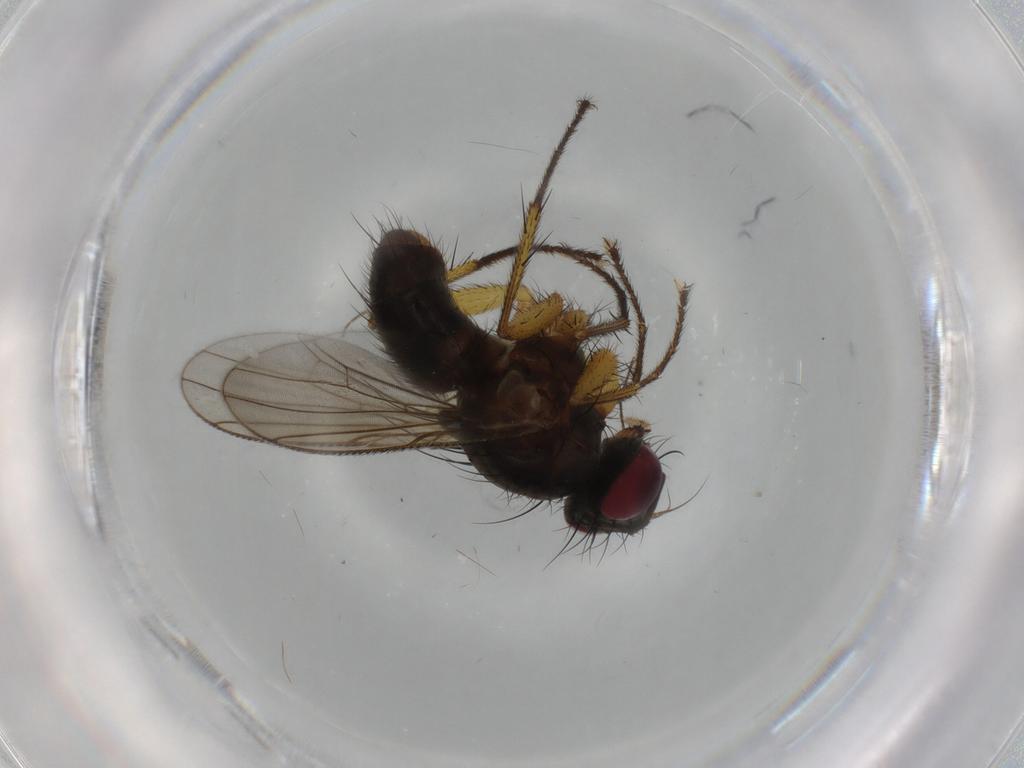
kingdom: Animalia
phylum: Arthropoda
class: Insecta
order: Diptera
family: Muscidae
